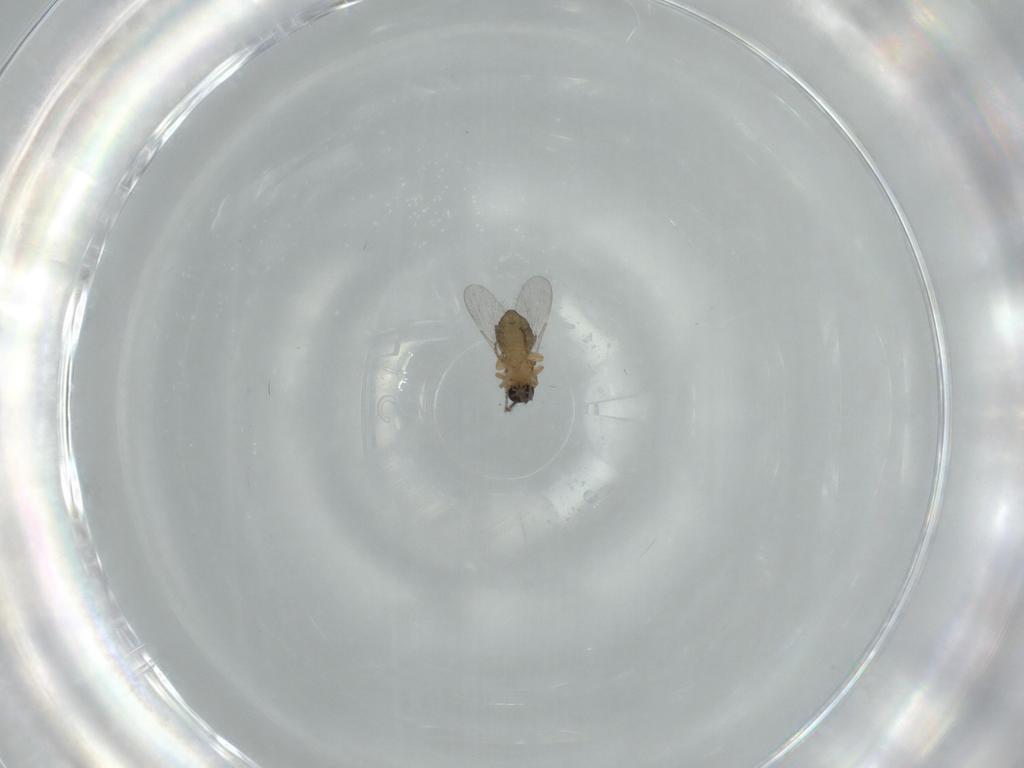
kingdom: Animalia
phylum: Arthropoda
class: Insecta
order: Diptera
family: Ceratopogonidae
